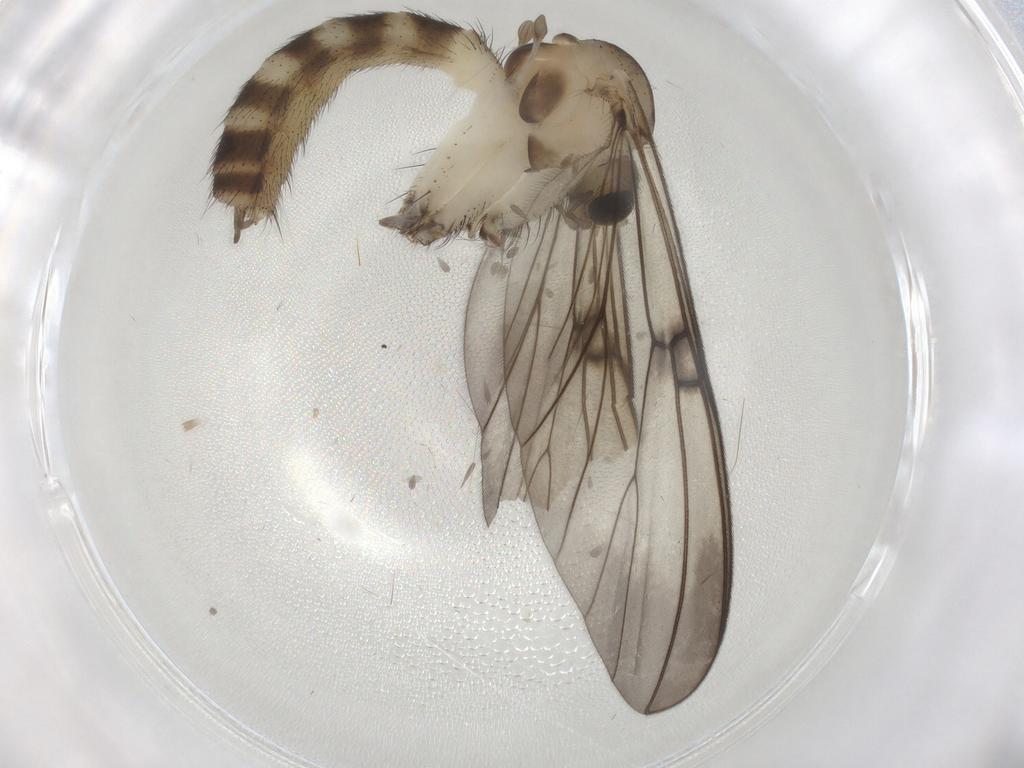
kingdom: Animalia
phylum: Arthropoda
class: Insecta
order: Diptera
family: Mycetophilidae
